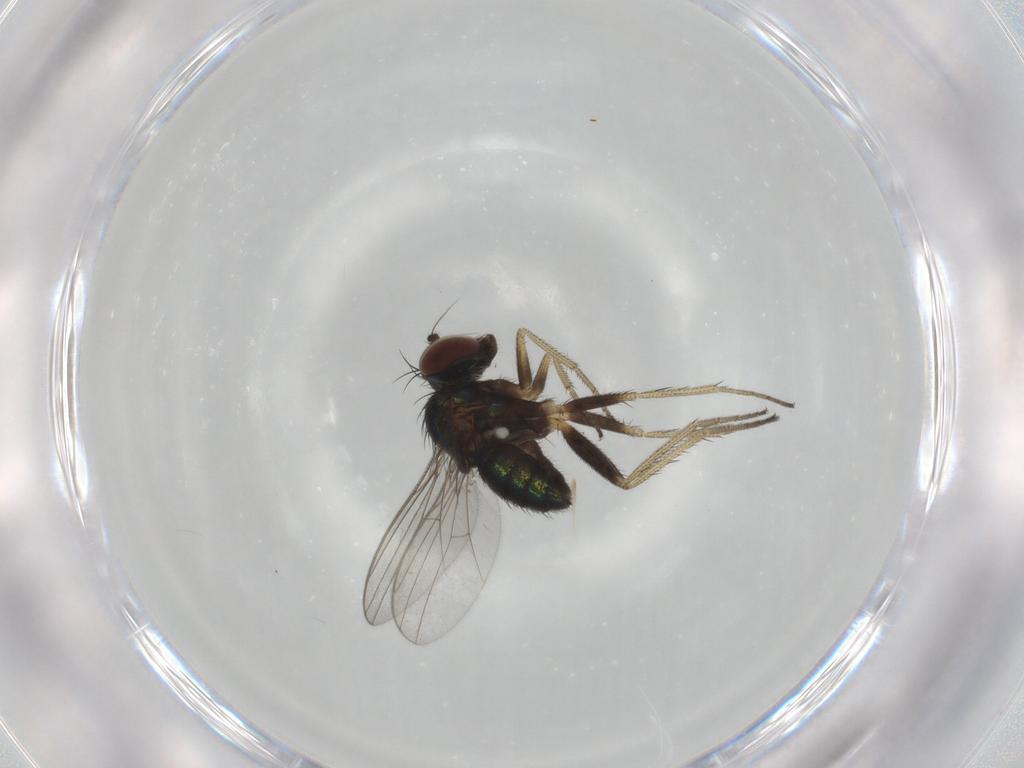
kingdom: Animalia
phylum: Arthropoda
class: Insecta
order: Diptera
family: Dolichopodidae
